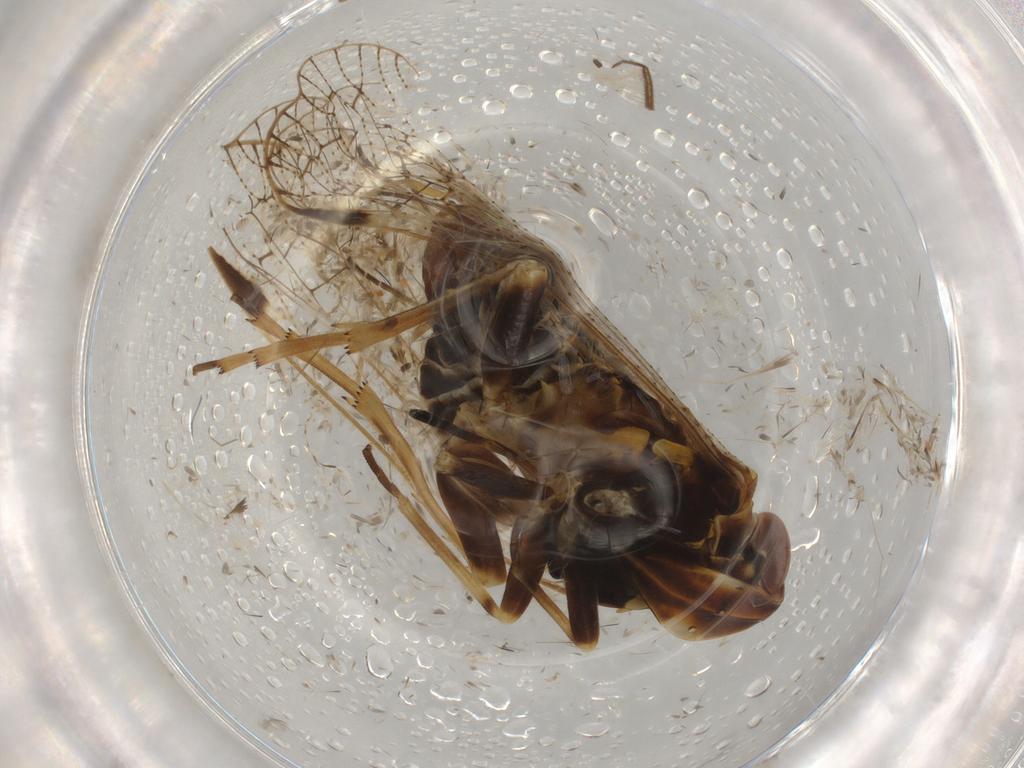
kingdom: Animalia
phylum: Arthropoda
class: Insecta
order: Hemiptera
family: Cixiidae
